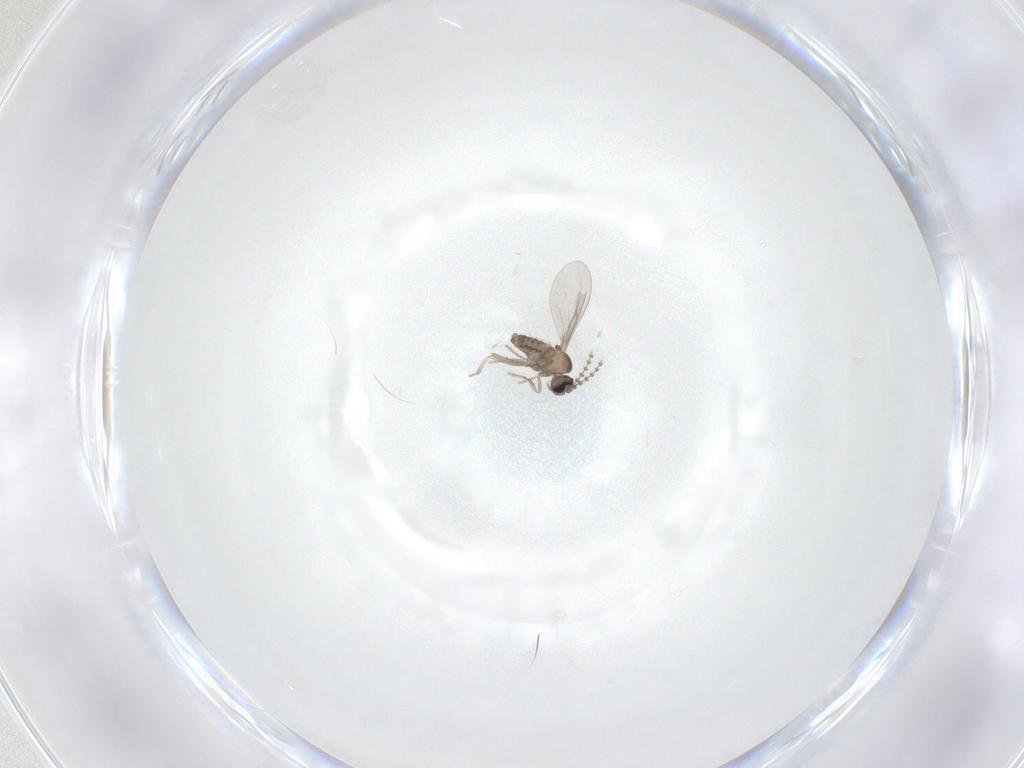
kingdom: Animalia
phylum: Arthropoda
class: Insecta
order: Diptera
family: Cecidomyiidae
